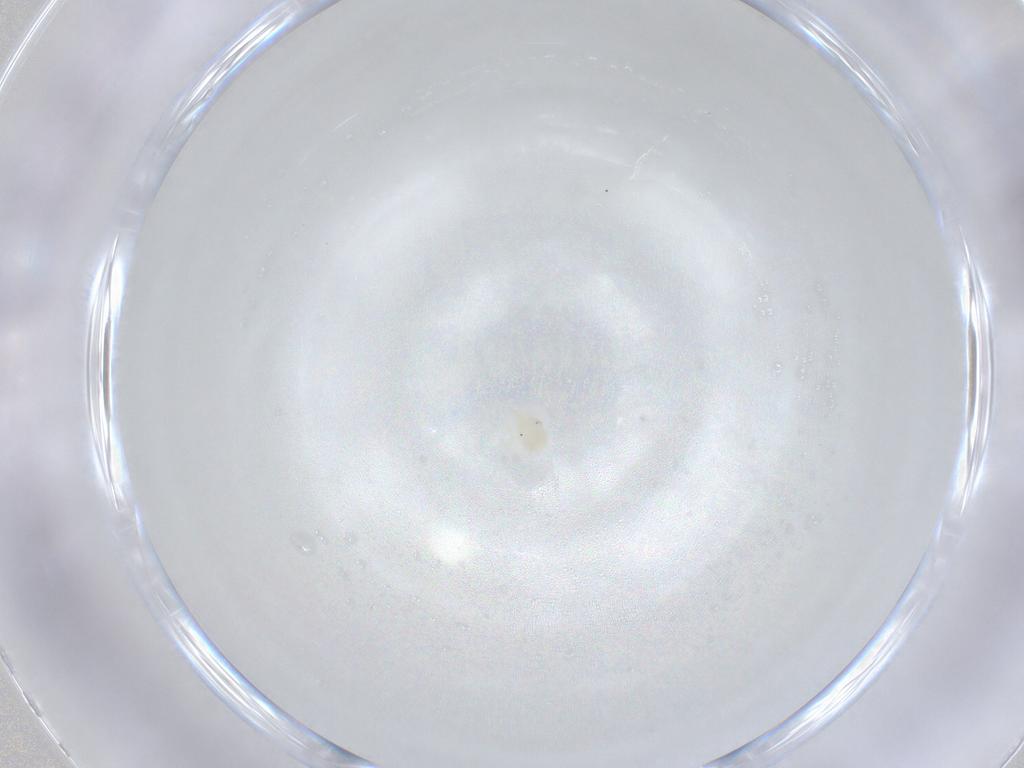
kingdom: Animalia
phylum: Arthropoda
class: Arachnida
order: Trombidiformes
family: Anystidae
